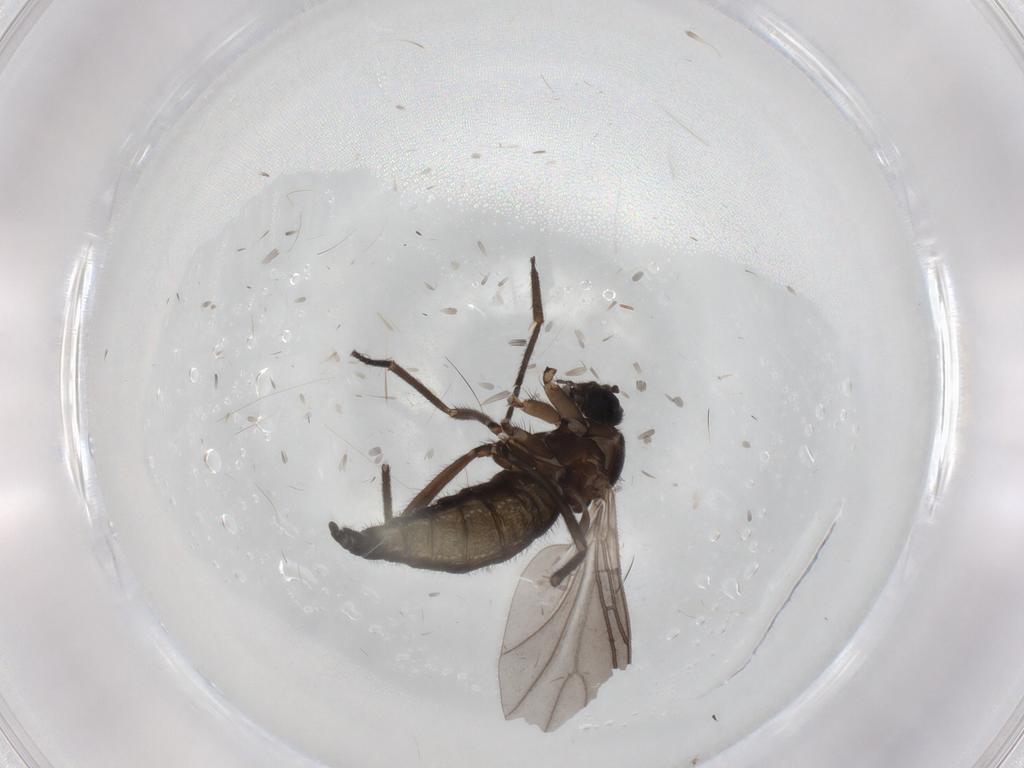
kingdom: Animalia
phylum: Arthropoda
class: Insecta
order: Diptera
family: Sciaridae
